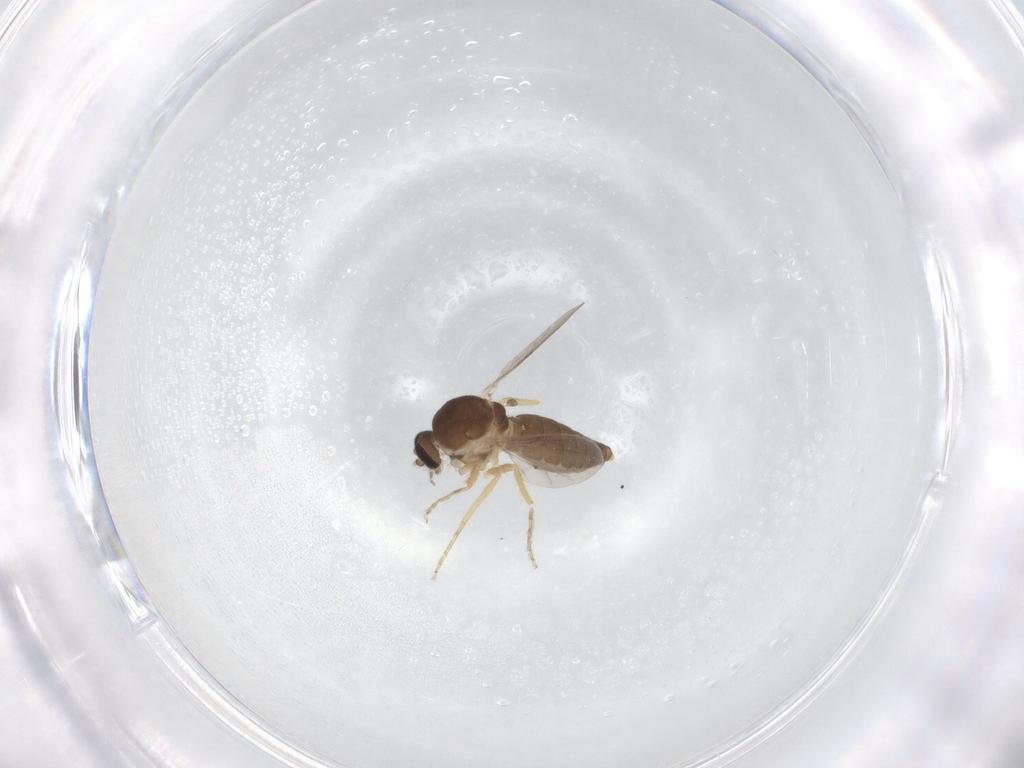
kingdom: Animalia
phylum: Arthropoda
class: Insecta
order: Diptera
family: Ceratopogonidae
